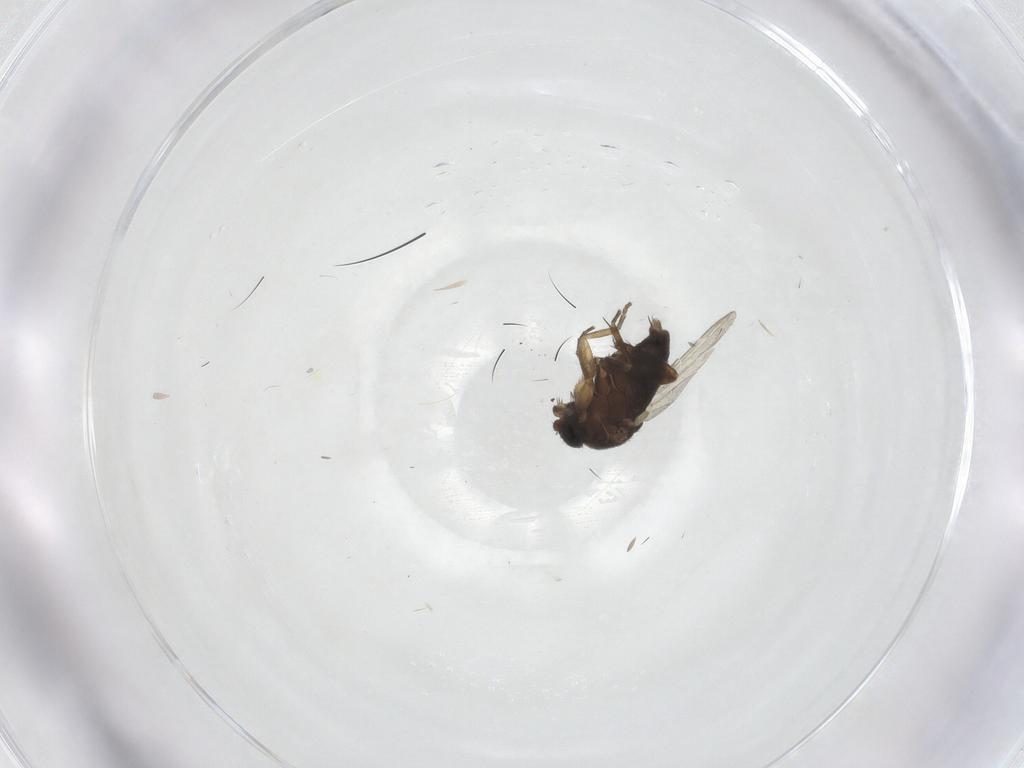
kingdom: Animalia
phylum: Arthropoda
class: Insecta
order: Diptera
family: Phoridae
